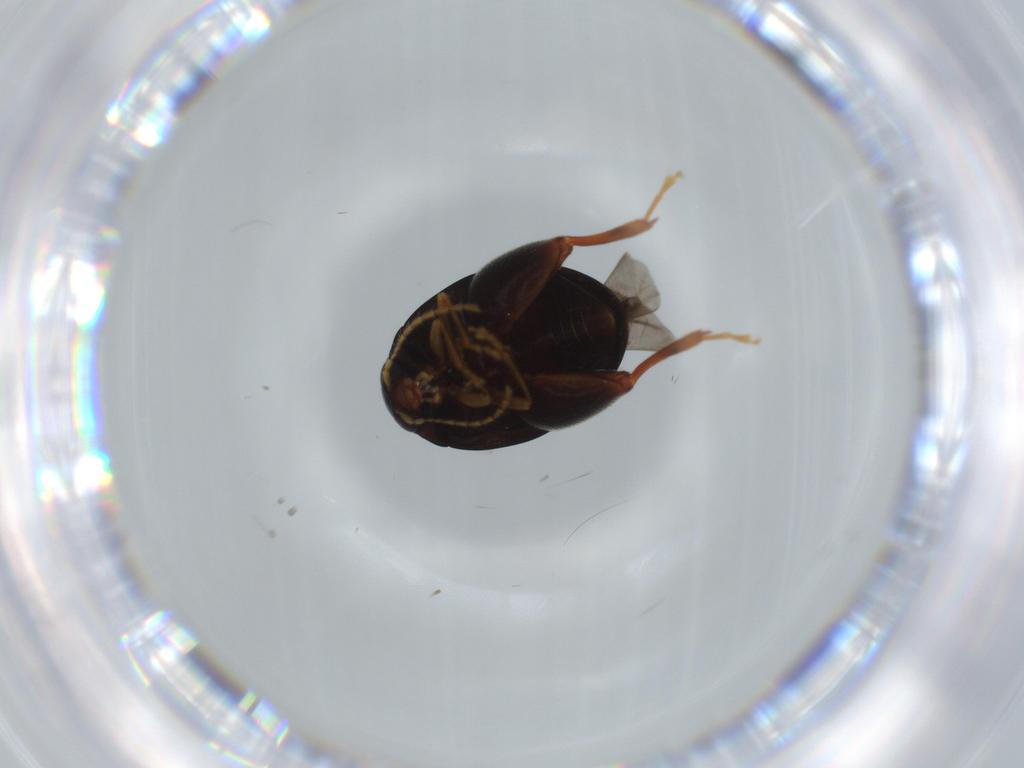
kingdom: Animalia
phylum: Arthropoda
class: Insecta
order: Coleoptera
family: Chrysomelidae
